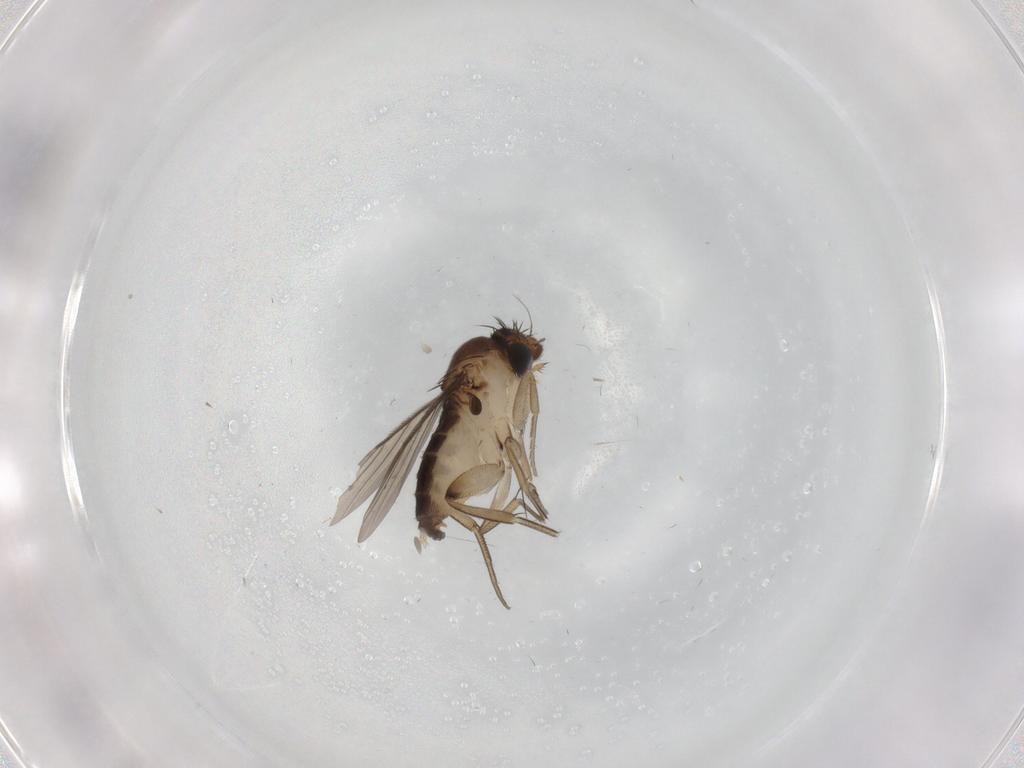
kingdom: Animalia
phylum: Arthropoda
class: Insecta
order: Diptera
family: Phoridae
